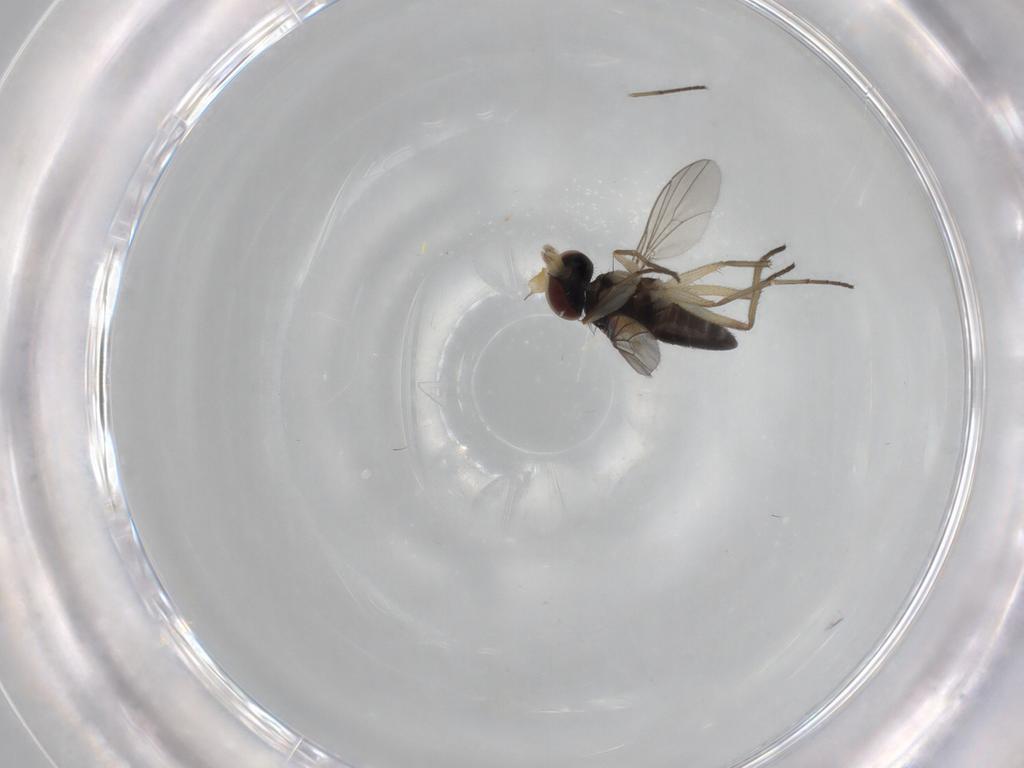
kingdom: Animalia
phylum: Arthropoda
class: Insecta
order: Diptera
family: Dolichopodidae
